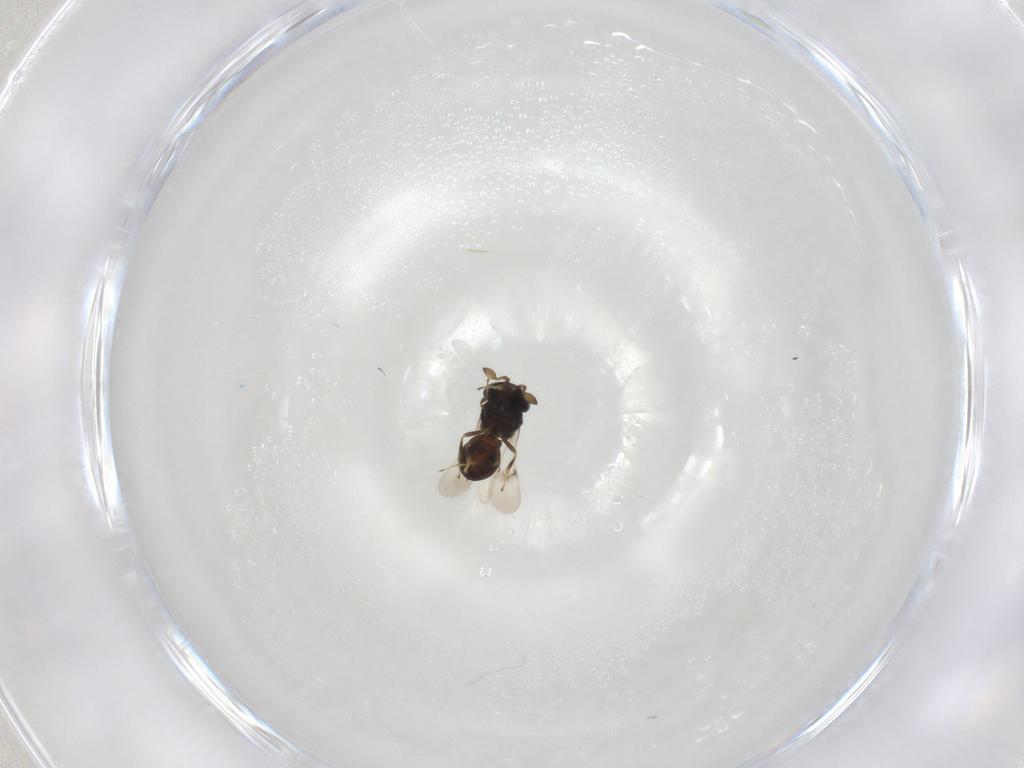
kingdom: Animalia
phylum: Arthropoda
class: Insecta
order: Hymenoptera
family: Scelionidae
